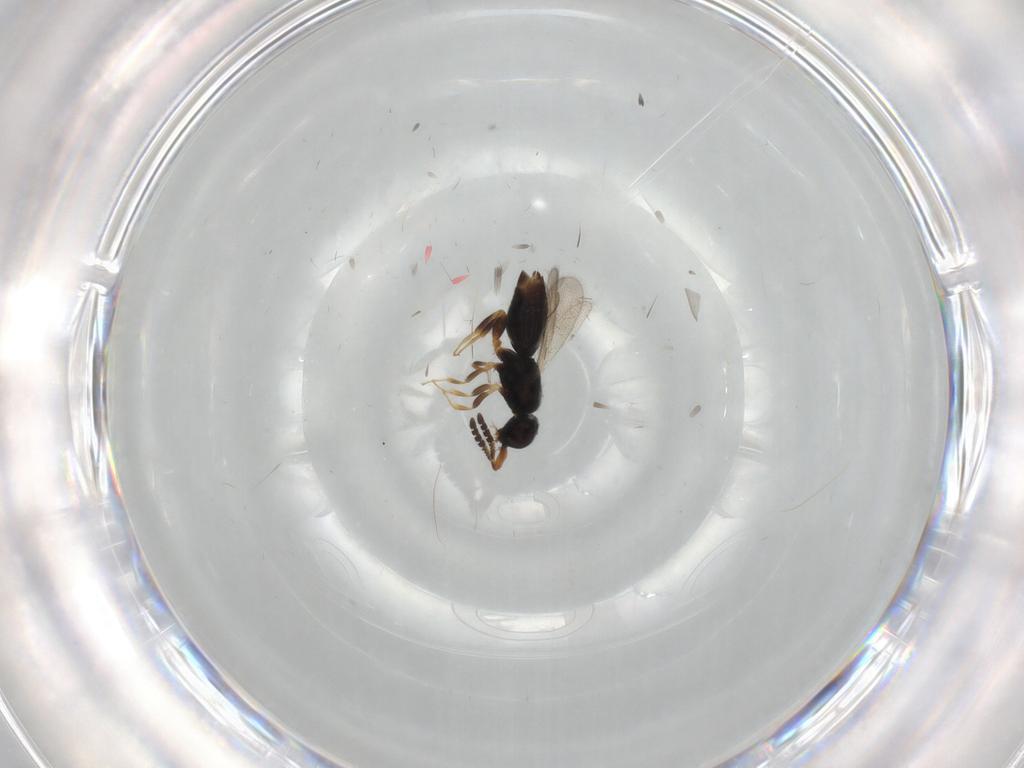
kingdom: Animalia
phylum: Arthropoda
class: Insecta
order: Hymenoptera
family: Ceraphronidae
